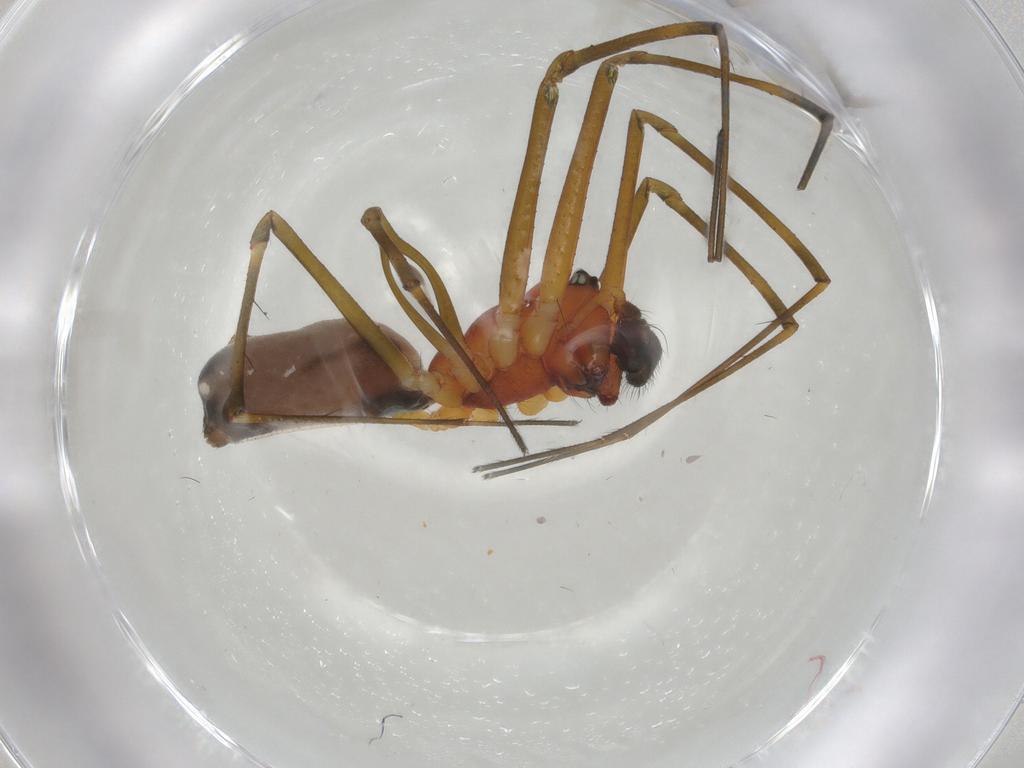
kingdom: Animalia
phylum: Arthropoda
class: Arachnida
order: Araneae
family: Linyphiidae
